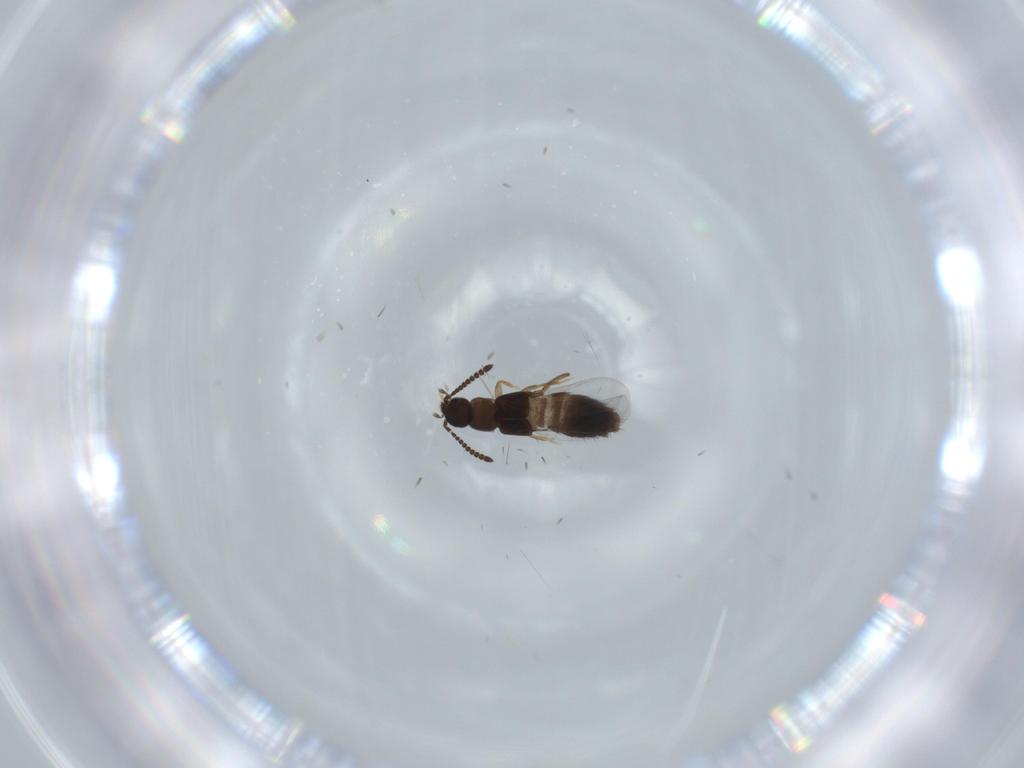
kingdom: Animalia
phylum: Arthropoda
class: Insecta
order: Coleoptera
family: Staphylinidae
